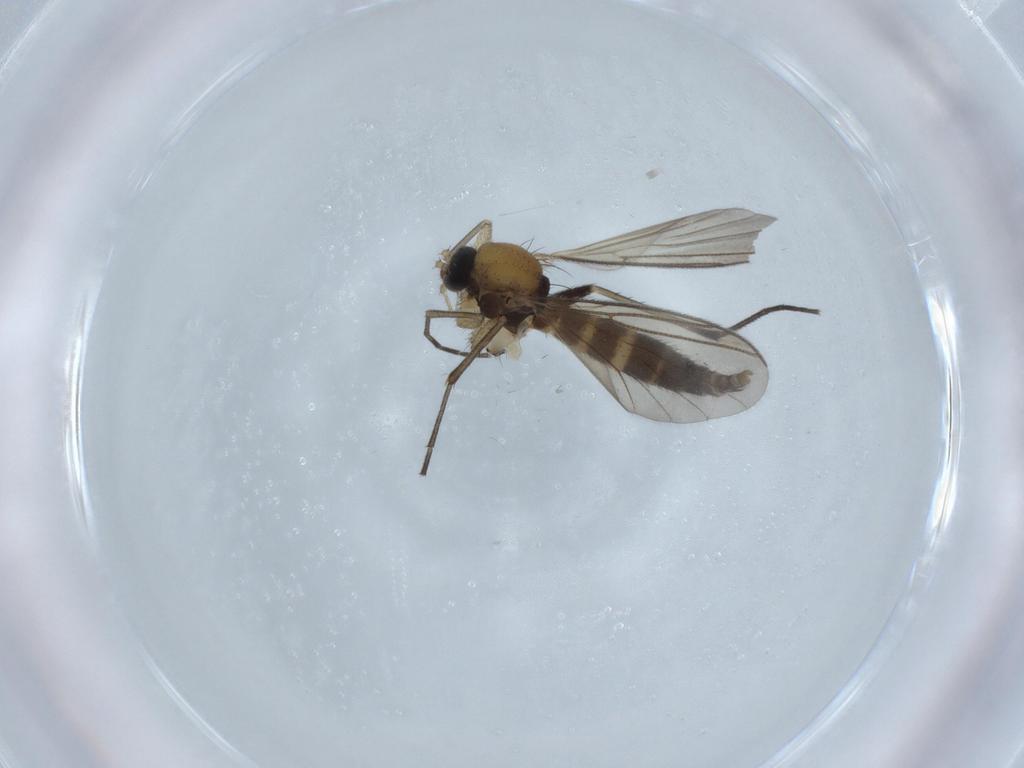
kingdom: Animalia
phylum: Arthropoda
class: Insecta
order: Diptera
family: Mycetophilidae
